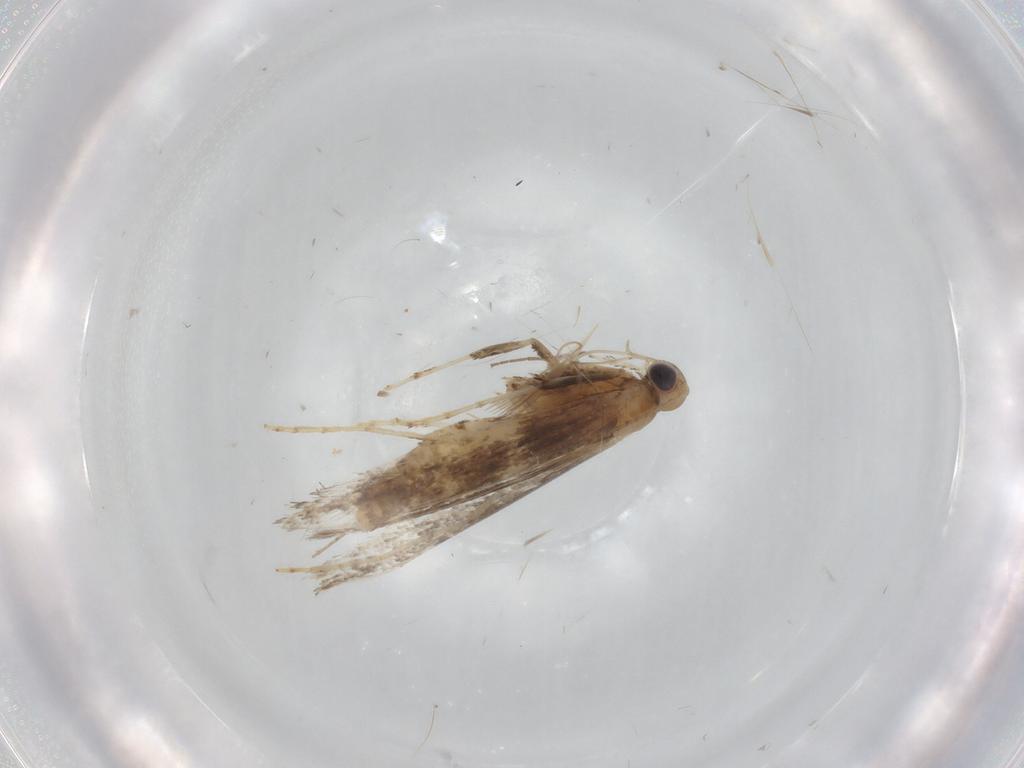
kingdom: Animalia
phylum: Arthropoda
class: Insecta
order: Lepidoptera
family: Gracillariidae
